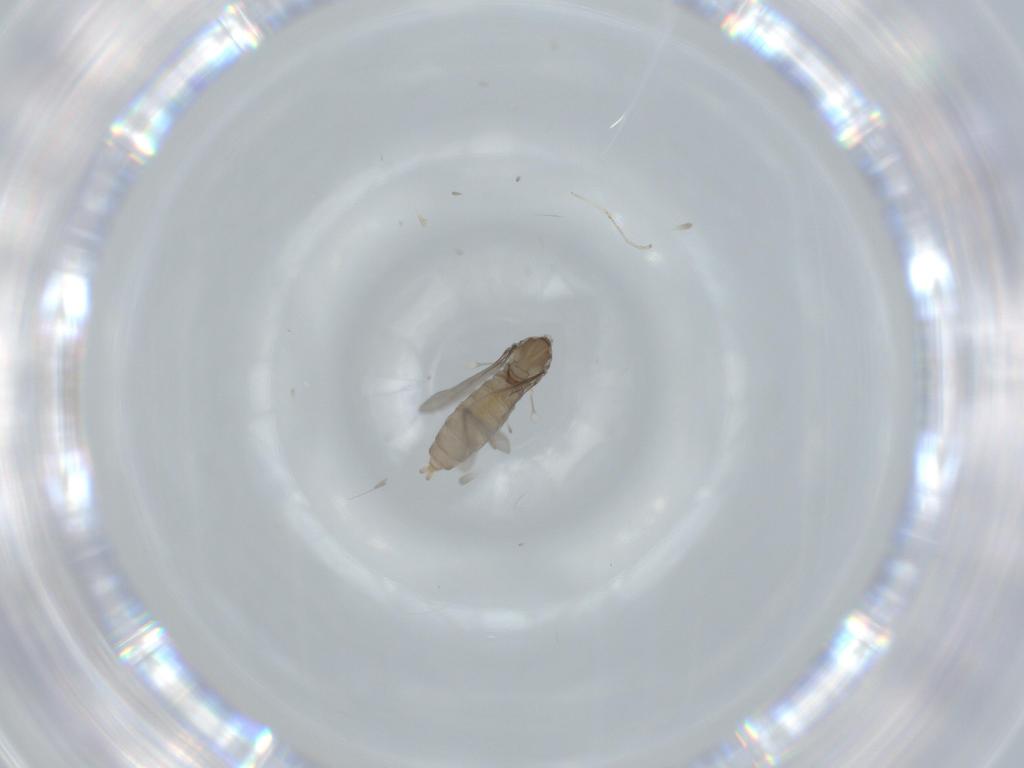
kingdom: Animalia
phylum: Arthropoda
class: Insecta
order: Diptera
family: Cecidomyiidae
